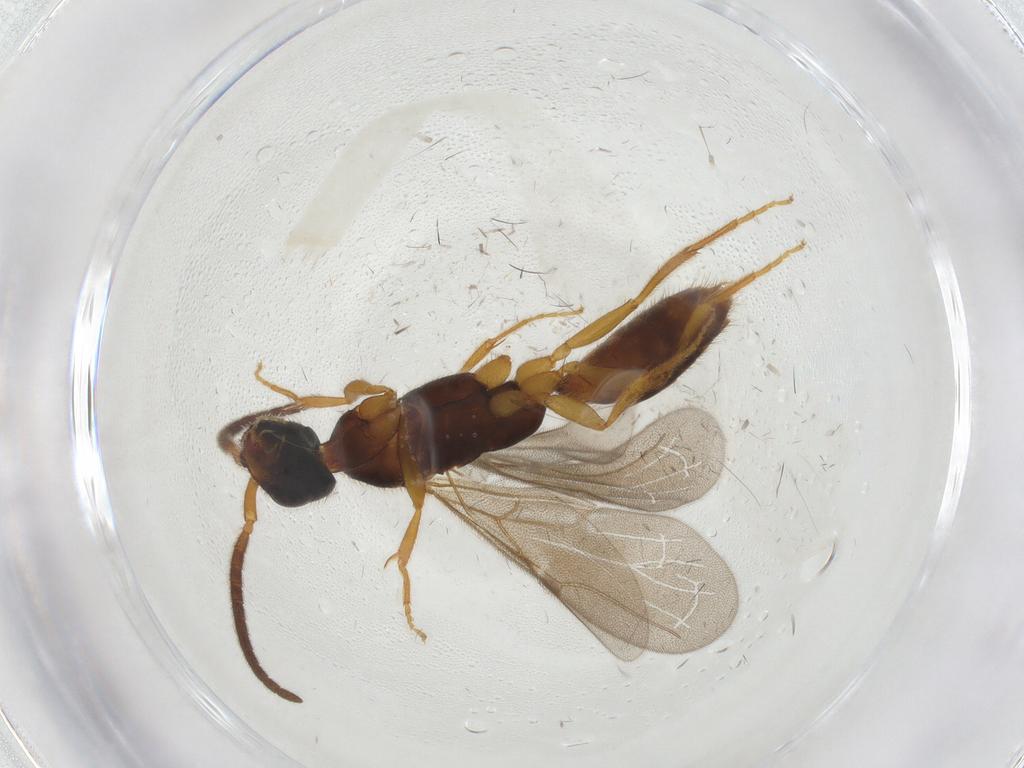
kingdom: Animalia
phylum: Arthropoda
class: Insecta
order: Hymenoptera
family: Bethylidae
